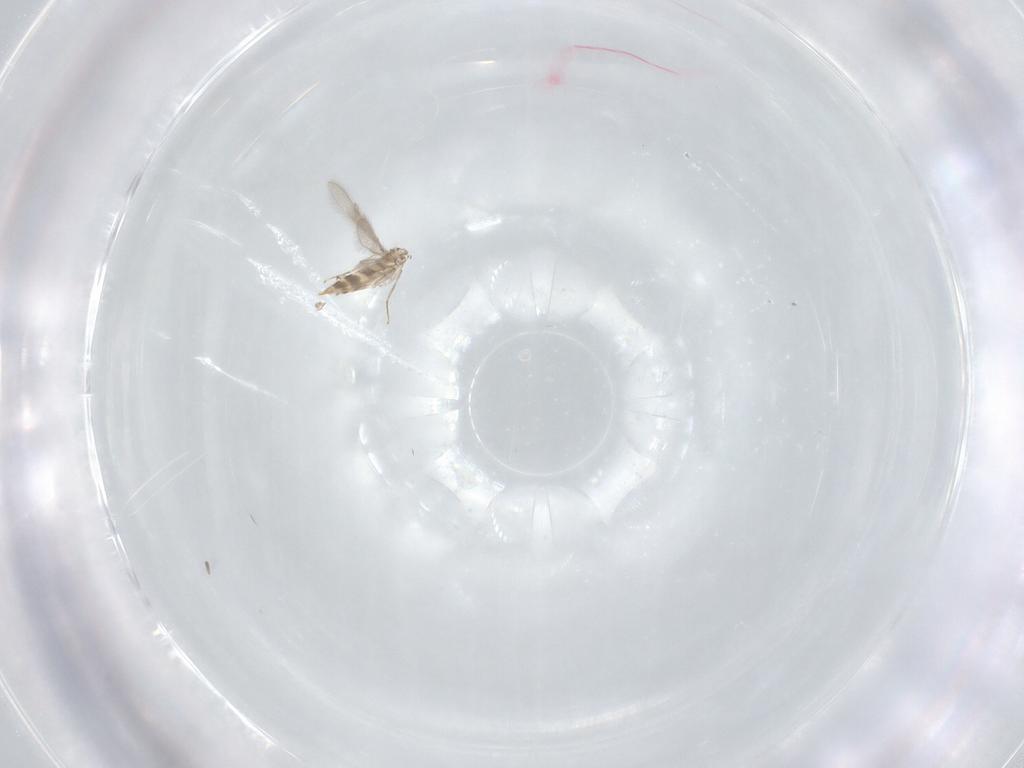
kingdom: Animalia
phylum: Arthropoda
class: Insecta
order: Hymenoptera
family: Mymaridae
